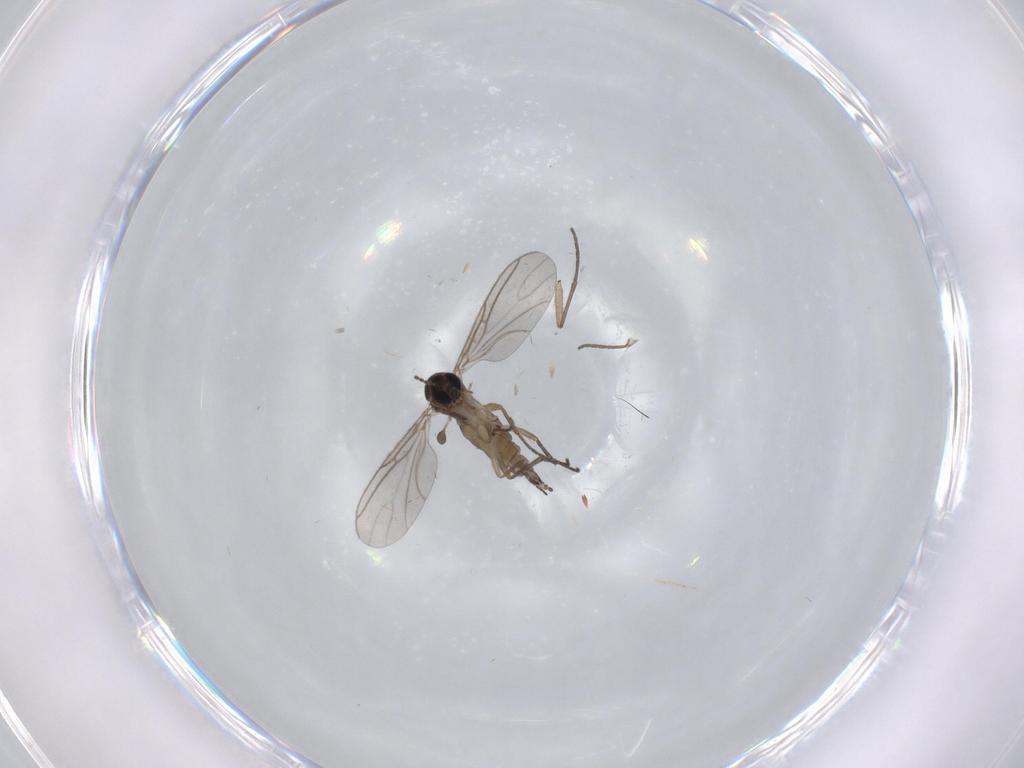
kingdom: Animalia
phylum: Arthropoda
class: Insecta
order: Diptera
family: Sciaridae
